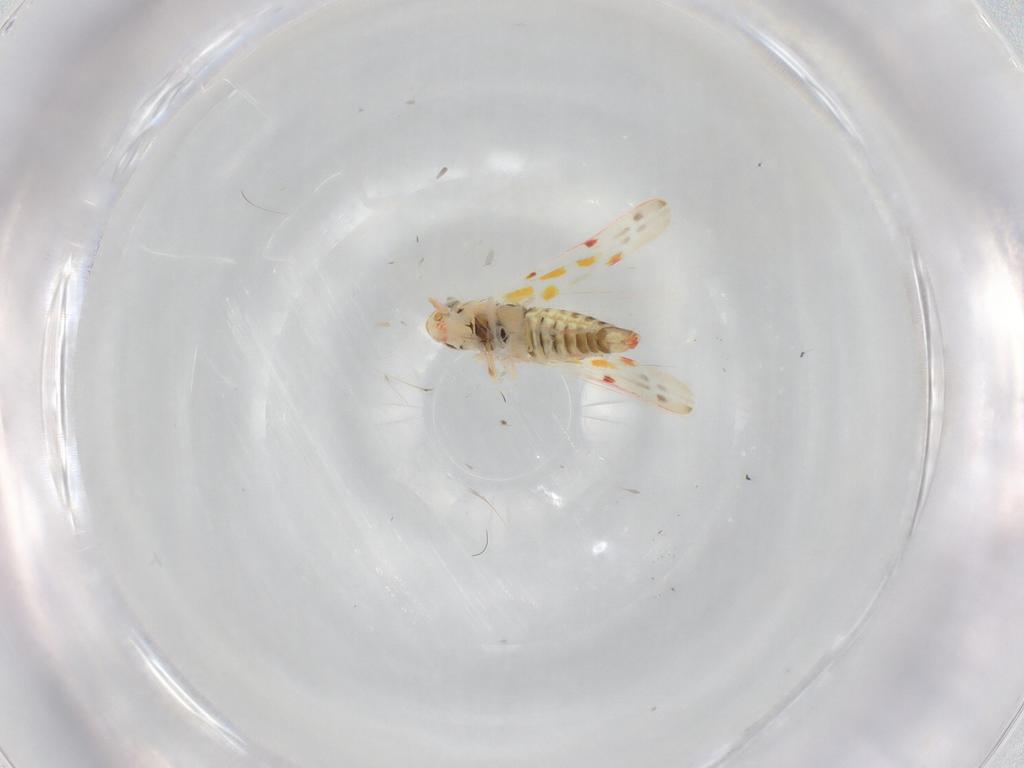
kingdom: Animalia
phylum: Arthropoda
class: Insecta
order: Hemiptera
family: Cicadellidae
